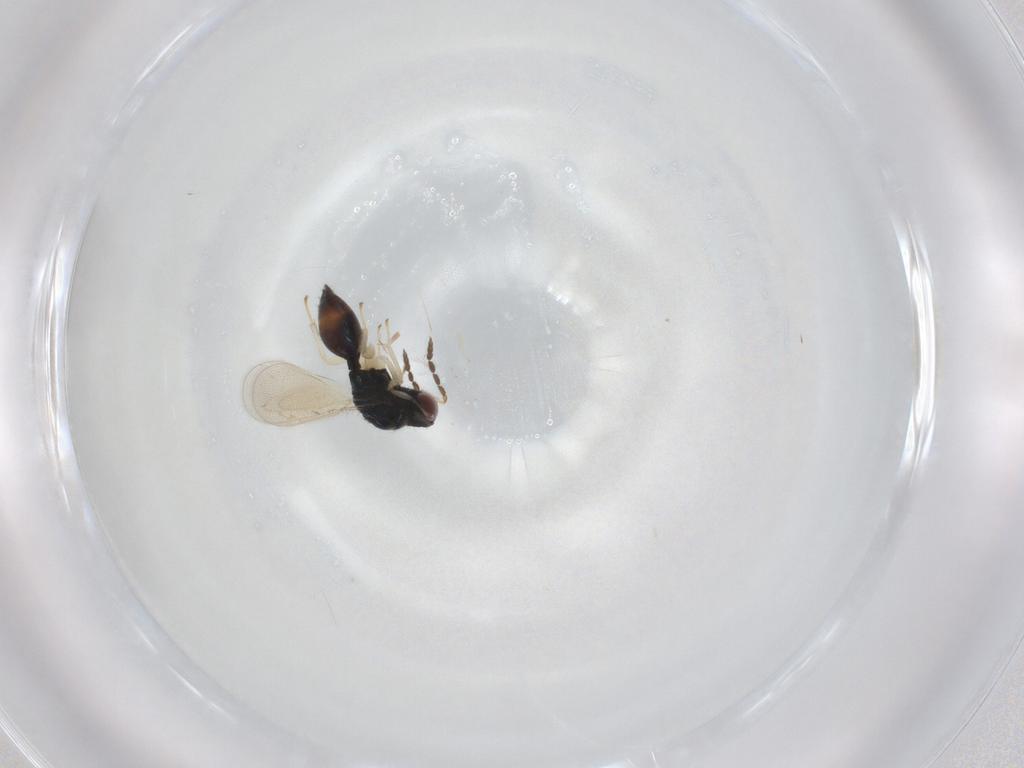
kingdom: Animalia
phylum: Arthropoda
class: Insecta
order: Hymenoptera
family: Eulophidae
